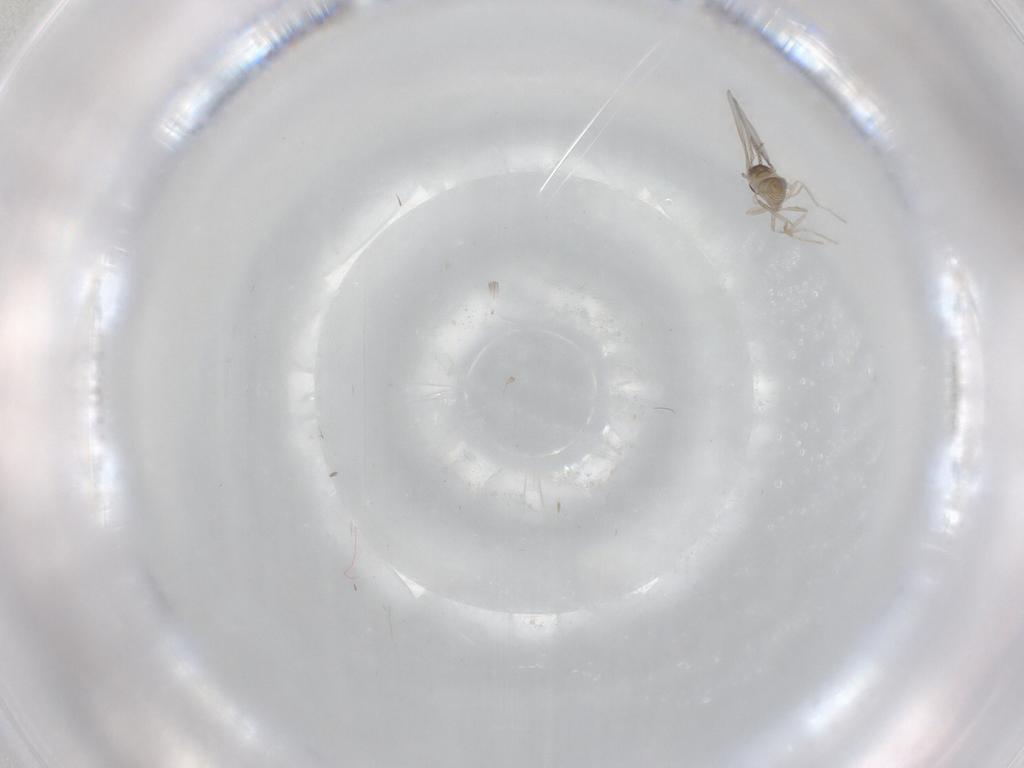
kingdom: Animalia
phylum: Arthropoda
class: Insecta
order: Diptera
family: Cecidomyiidae
